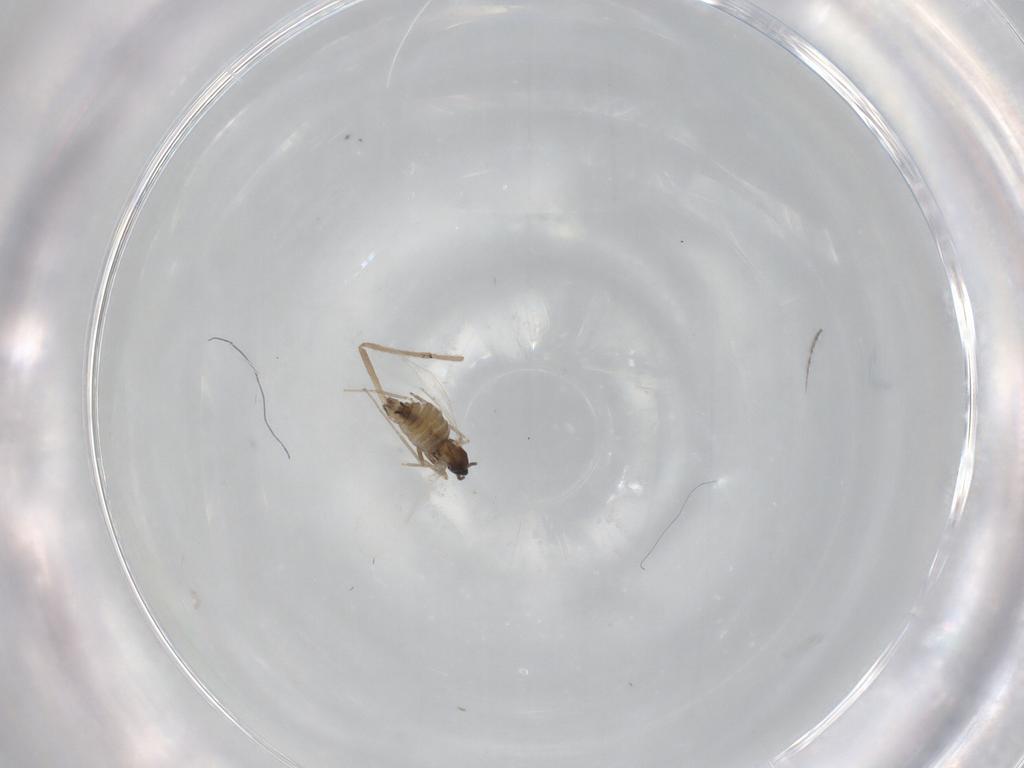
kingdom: Animalia
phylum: Arthropoda
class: Insecta
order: Diptera
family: Chironomidae
